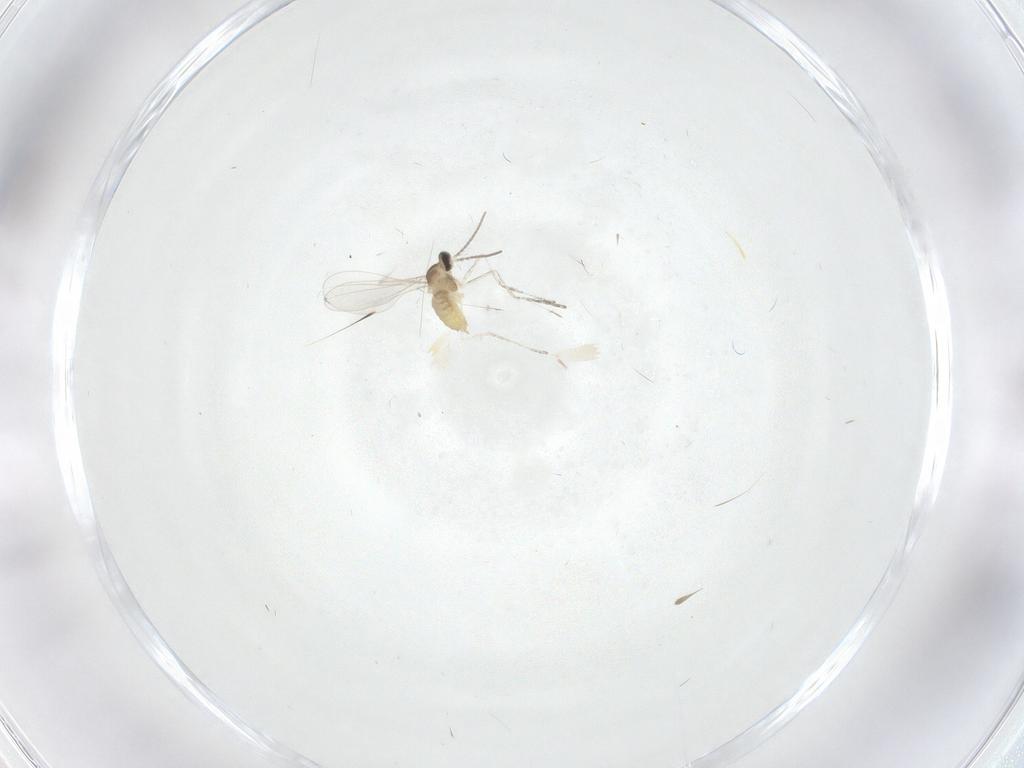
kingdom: Animalia
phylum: Arthropoda
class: Insecta
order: Diptera
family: Cecidomyiidae
